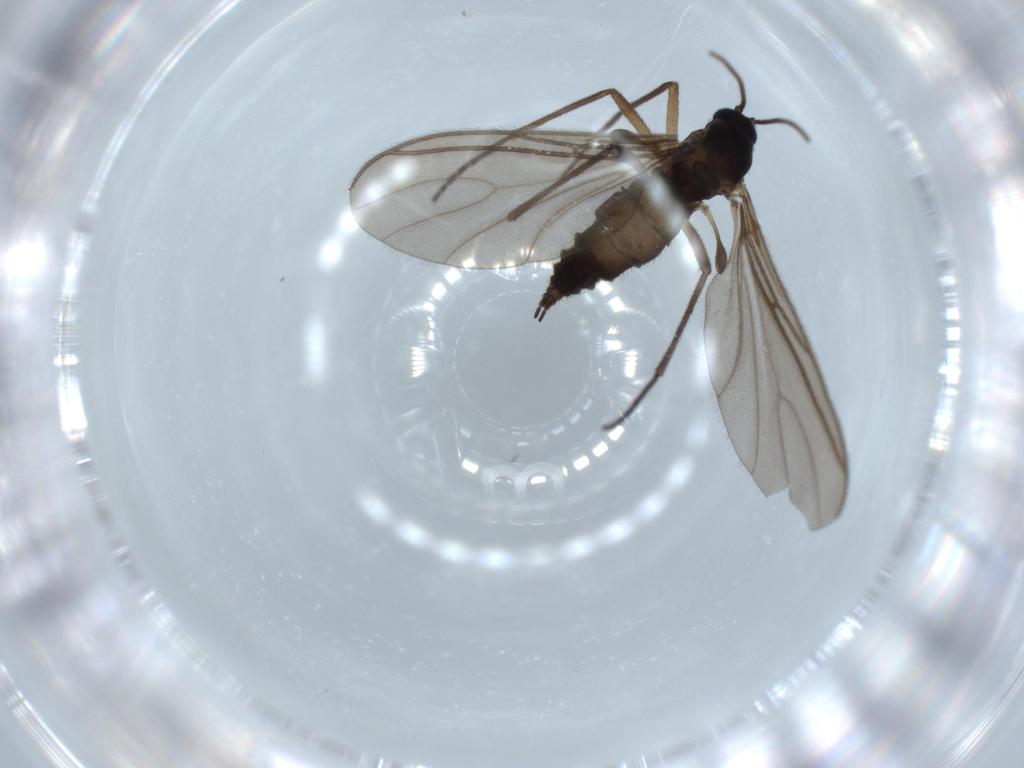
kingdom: Animalia
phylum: Arthropoda
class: Insecta
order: Diptera
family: Sciaridae
